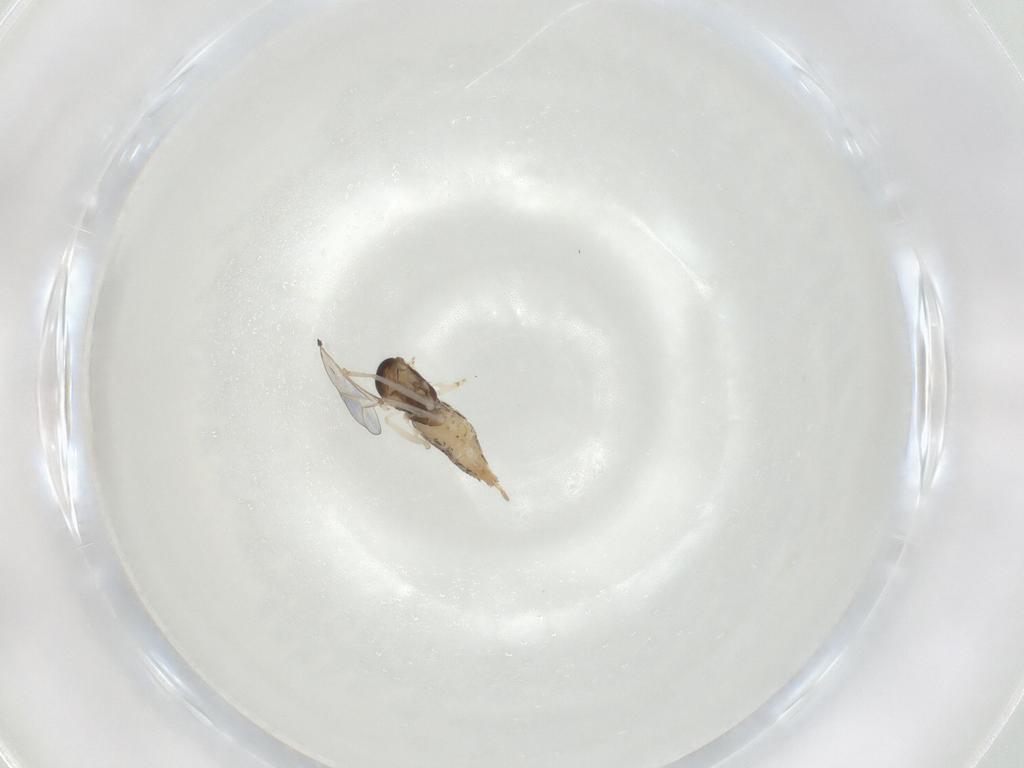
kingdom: Animalia
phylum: Arthropoda
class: Insecta
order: Diptera
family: Cecidomyiidae
